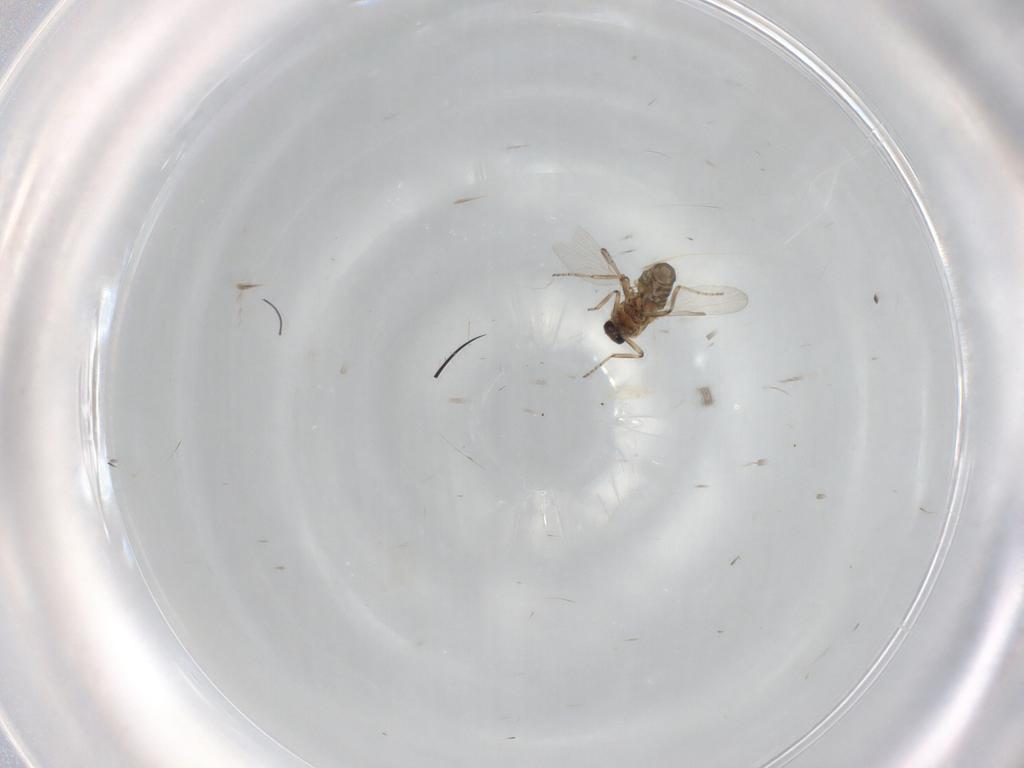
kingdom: Animalia
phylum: Arthropoda
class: Insecta
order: Diptera
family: Ceratopogonidae
